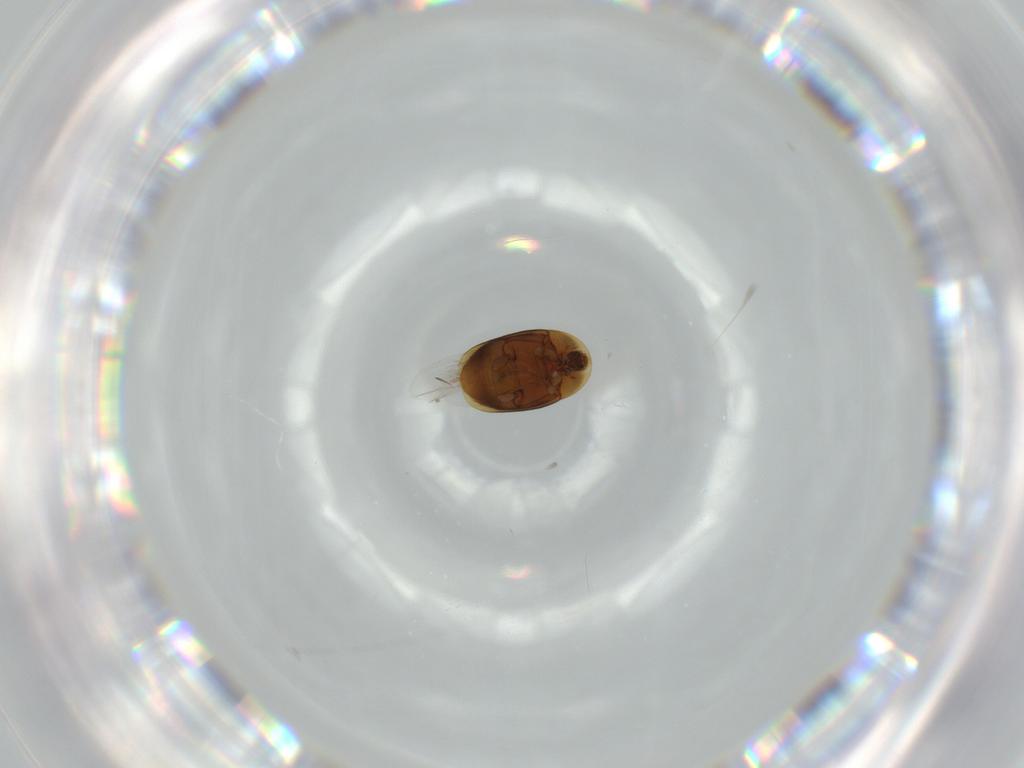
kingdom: Animalia
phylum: Arthropoda
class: Insecta
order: Coleoptera
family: Corylophidae
